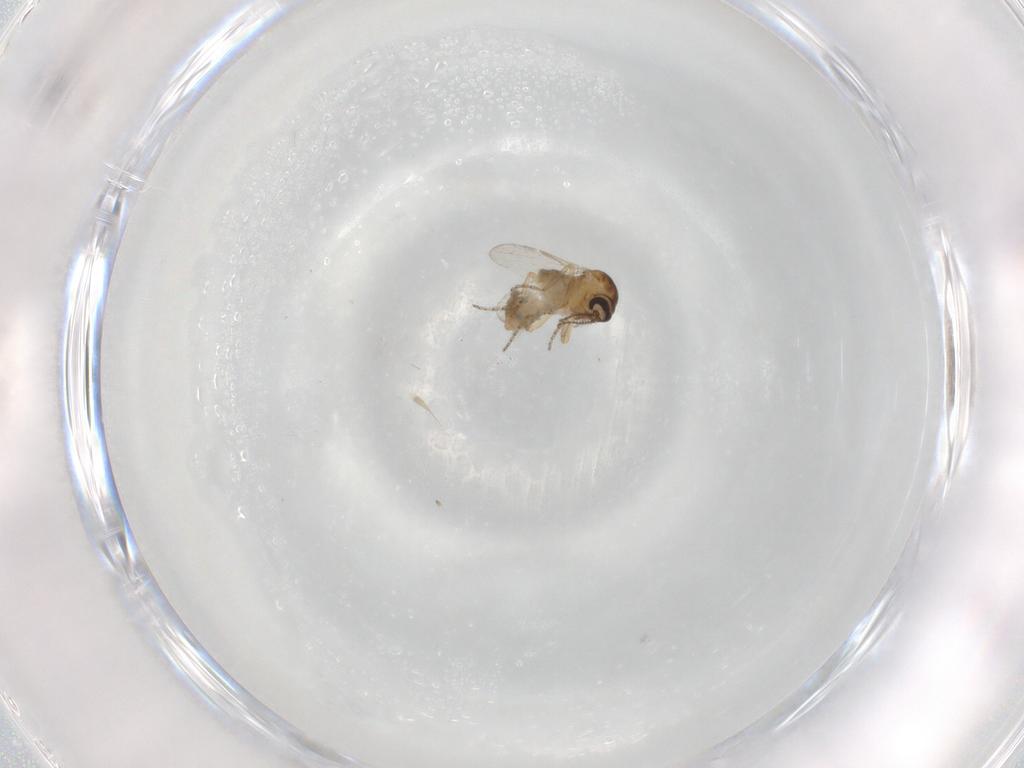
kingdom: Animalia
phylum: Arthropoda
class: Insecta
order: Diptera
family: Ceratopogonidae
